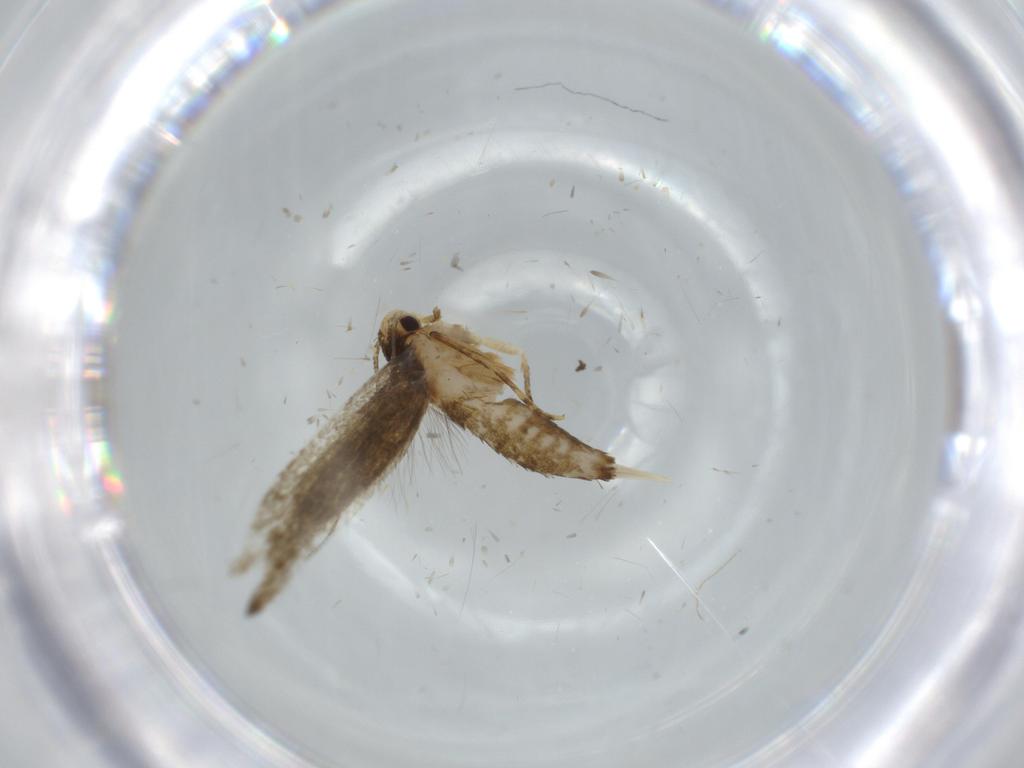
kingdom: Animalia
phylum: Arthropoda
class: Insecta
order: Lepidoptera
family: Tineidae
